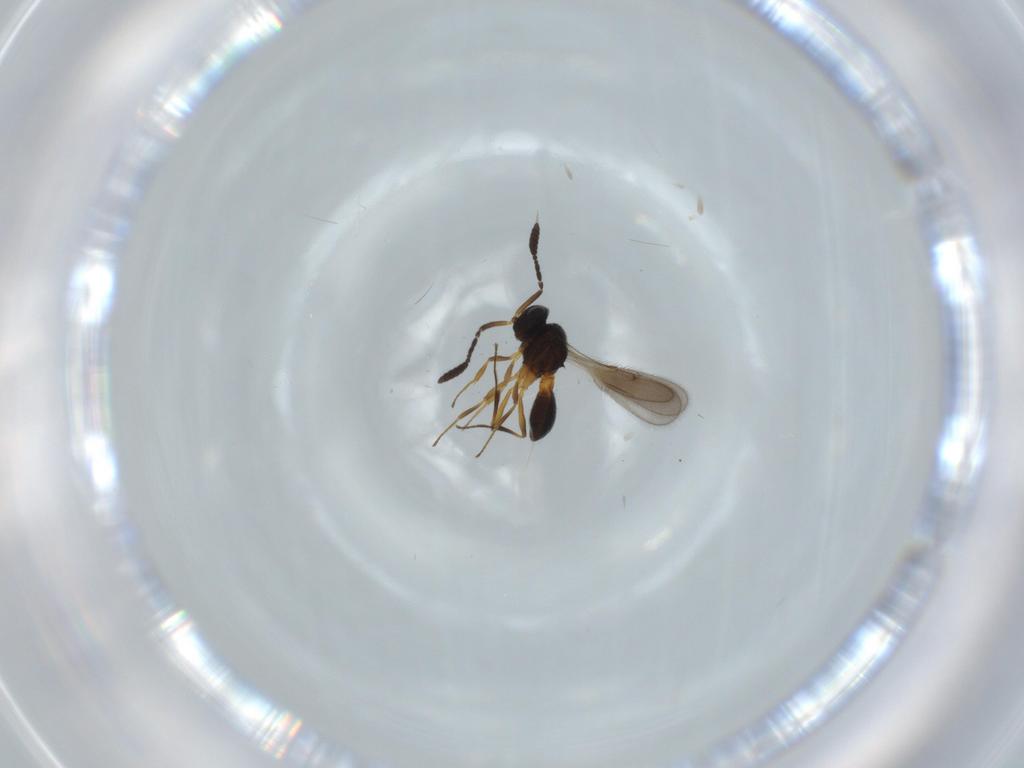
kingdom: Animalia
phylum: Arthropoda
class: Insecta
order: Hymenoptera
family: Scelionidae
